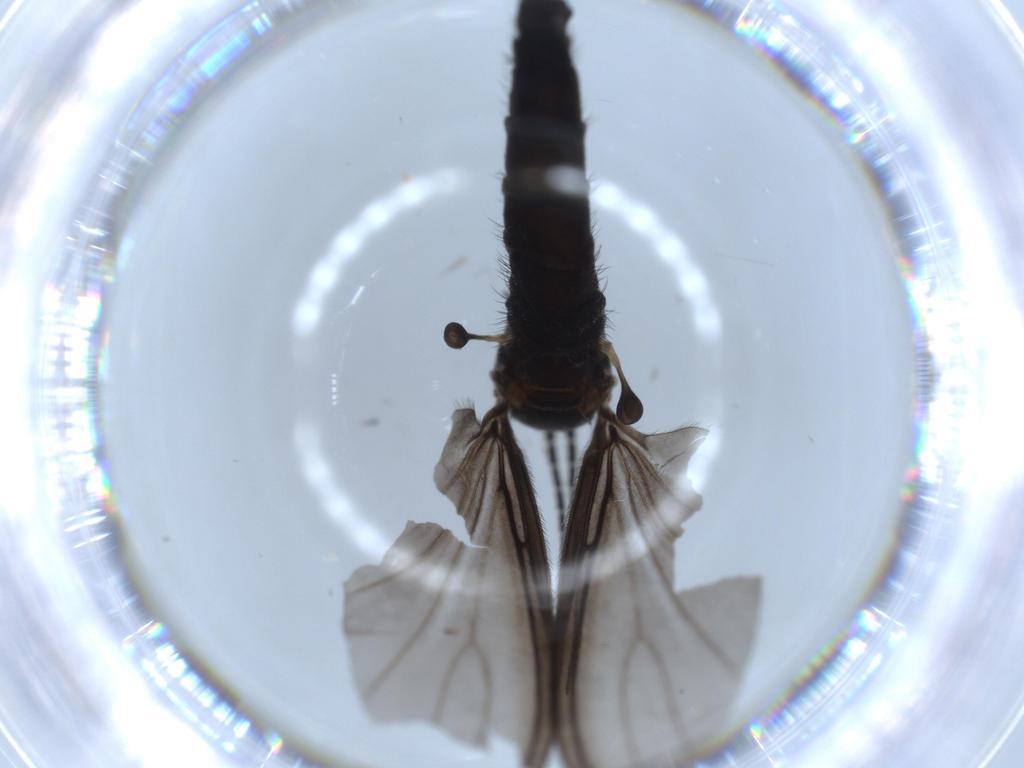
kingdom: Animalia
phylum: Arthropoda
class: Insecta
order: Diptera
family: Sciaridae
